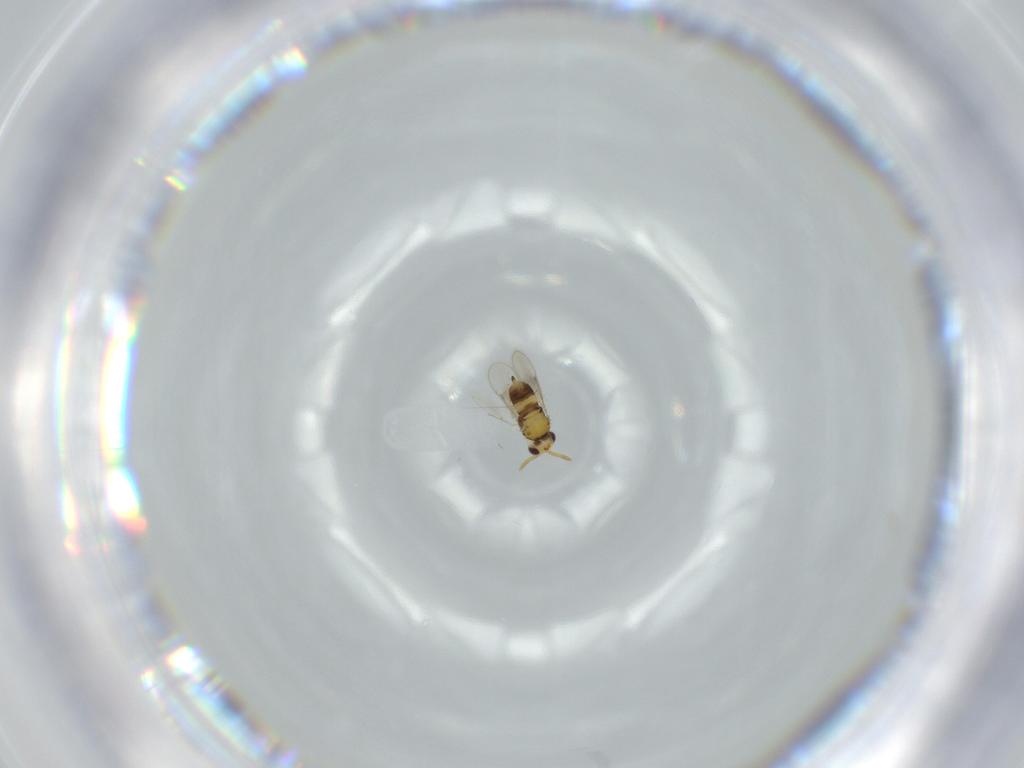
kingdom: Animalia
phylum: Arthropoda
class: Insecta
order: Hymenoptera
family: Aphelinidae
